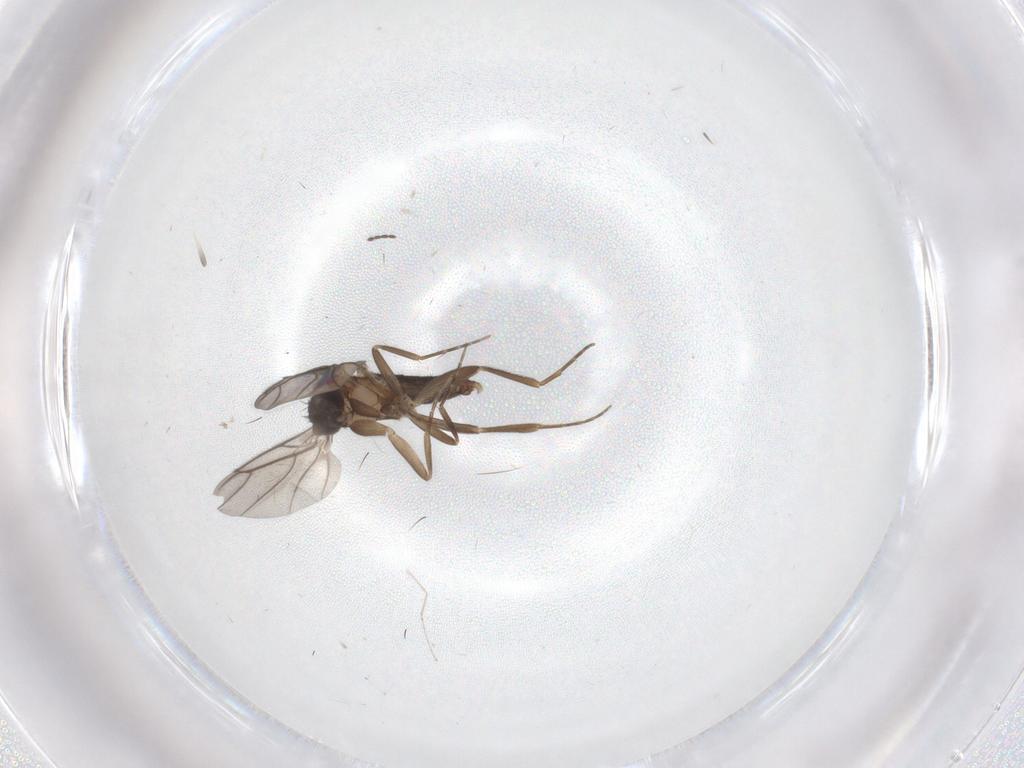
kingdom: Animalia
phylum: Arthropoda
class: Insecta
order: Diptera
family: Cecidomyiidae
